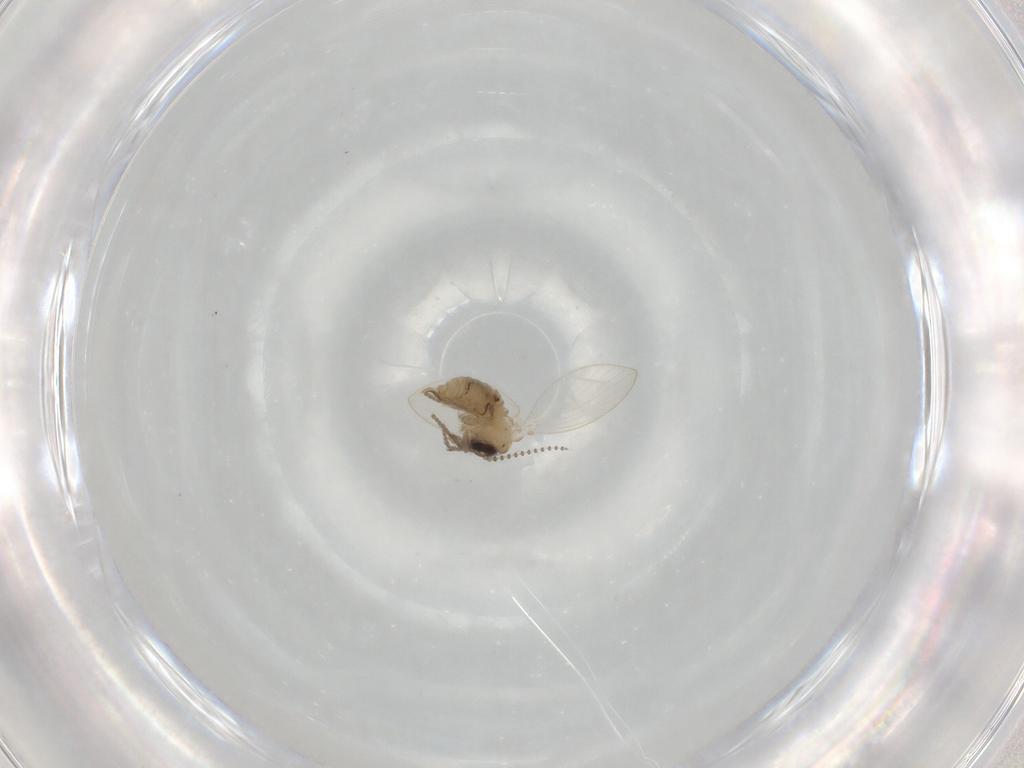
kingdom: Animalia
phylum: Arthropoda
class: Insecta
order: Diptera
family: Psychodidae
